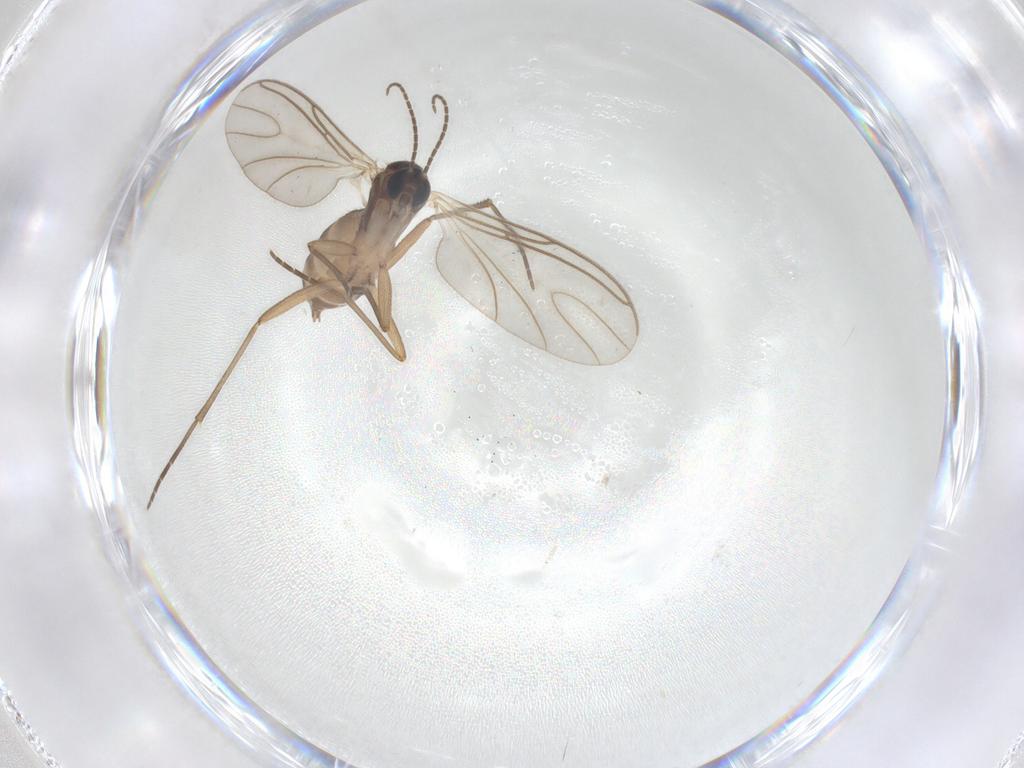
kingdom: Animalia
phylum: Arthropoda
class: Insecta
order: Diptera
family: Sciaridae
